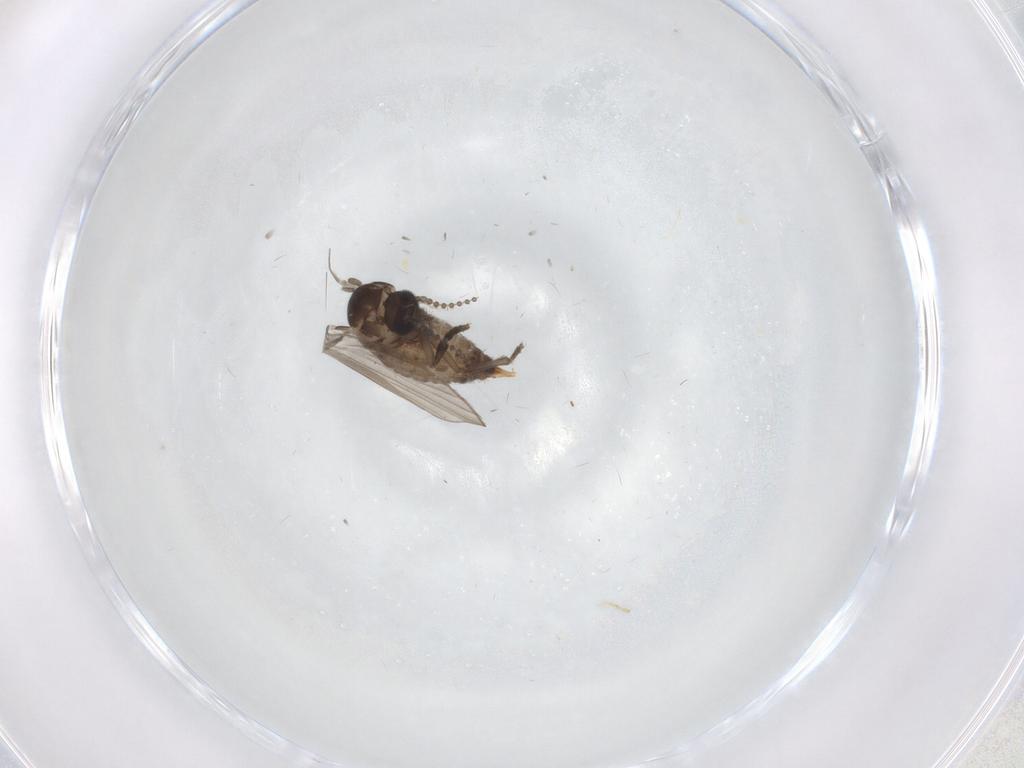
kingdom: Animalia
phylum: Arthropoda
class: Insecta
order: Diptera
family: Psychodidae
